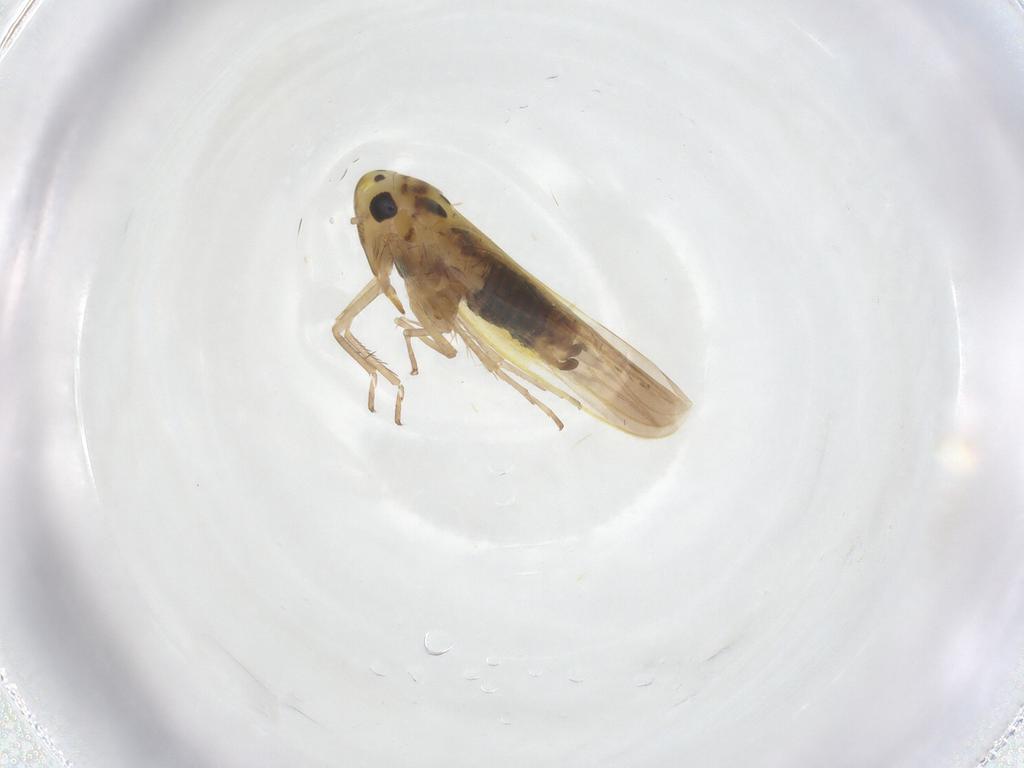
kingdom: Animalia
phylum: Arthropoda
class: Insecta
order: Hemiptera
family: Cicadellidae
